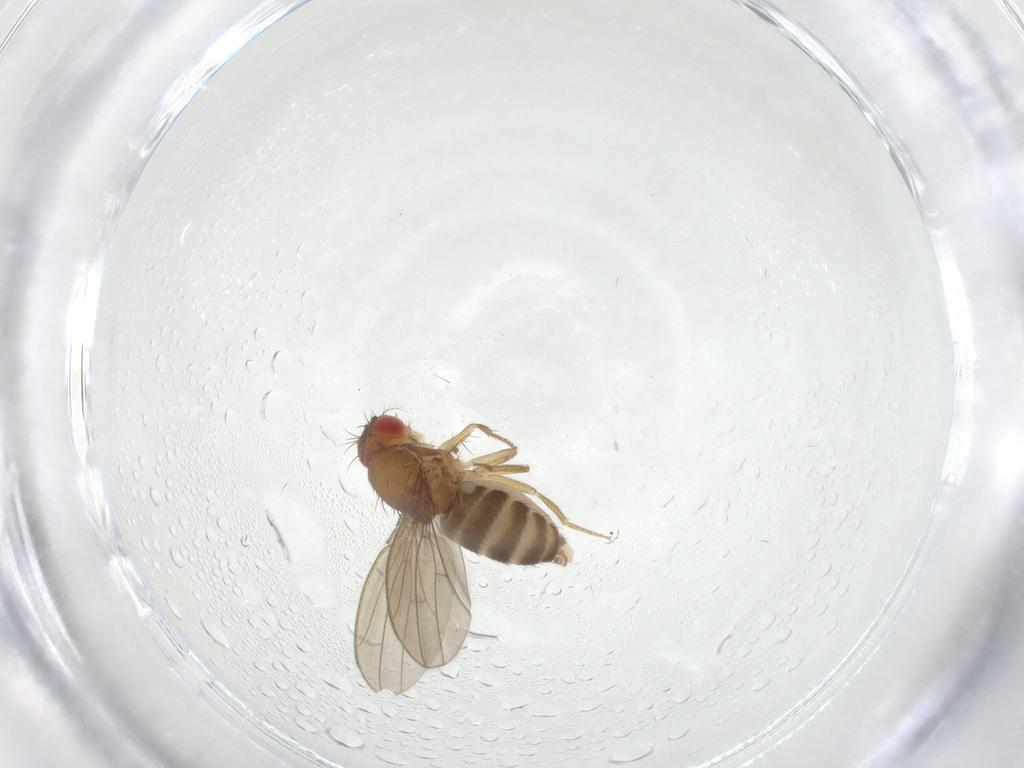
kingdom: Animalia
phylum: Arthropoda
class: Insecta
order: Diptera
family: Drosophilidae
